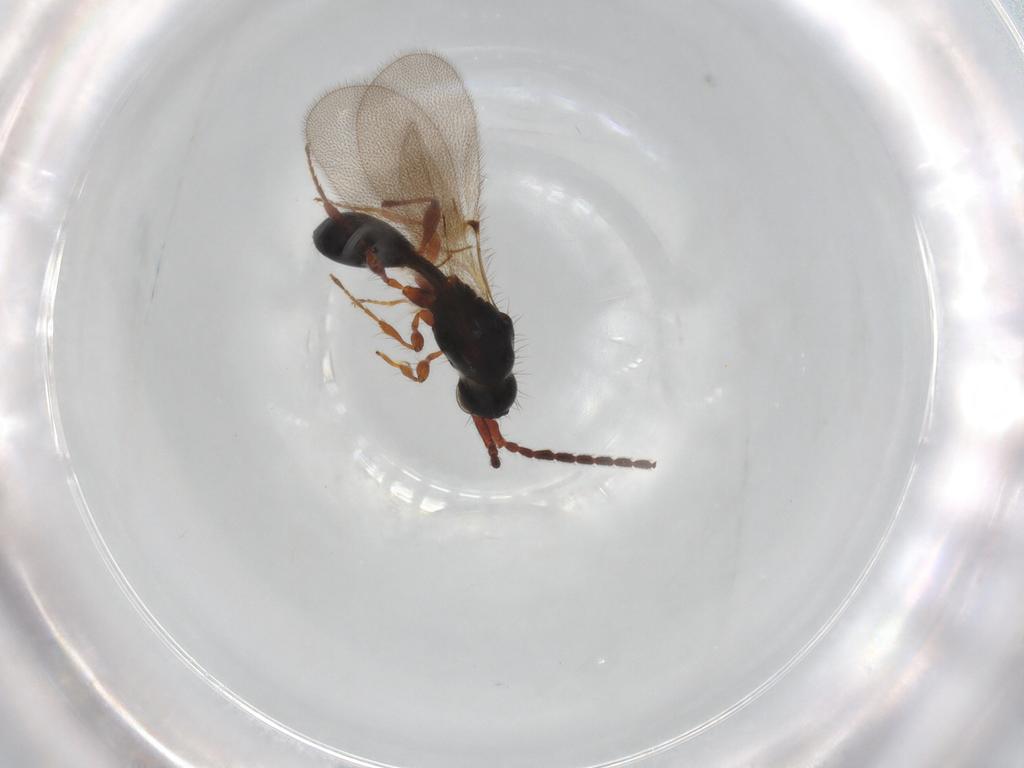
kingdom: Animalia
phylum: Arthropoda
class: Insecta
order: Hymenoptera
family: Diapriidae
